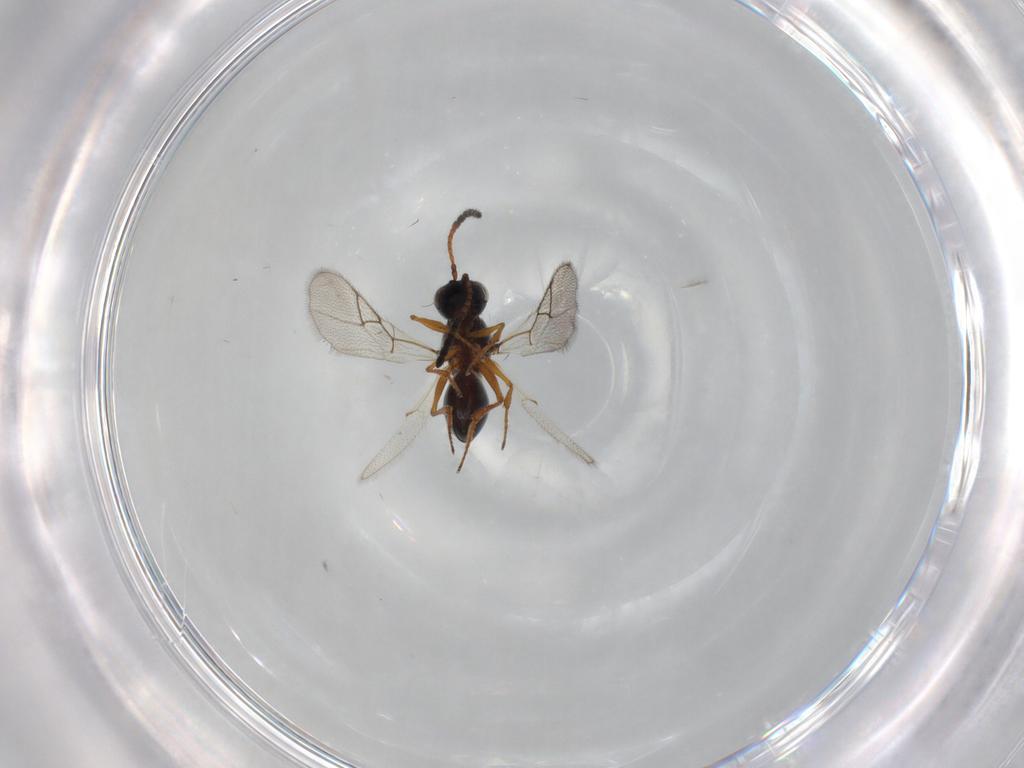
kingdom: Animalia
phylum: Arthropoda
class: Insecta
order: Hymenoptera
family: Figitidae
